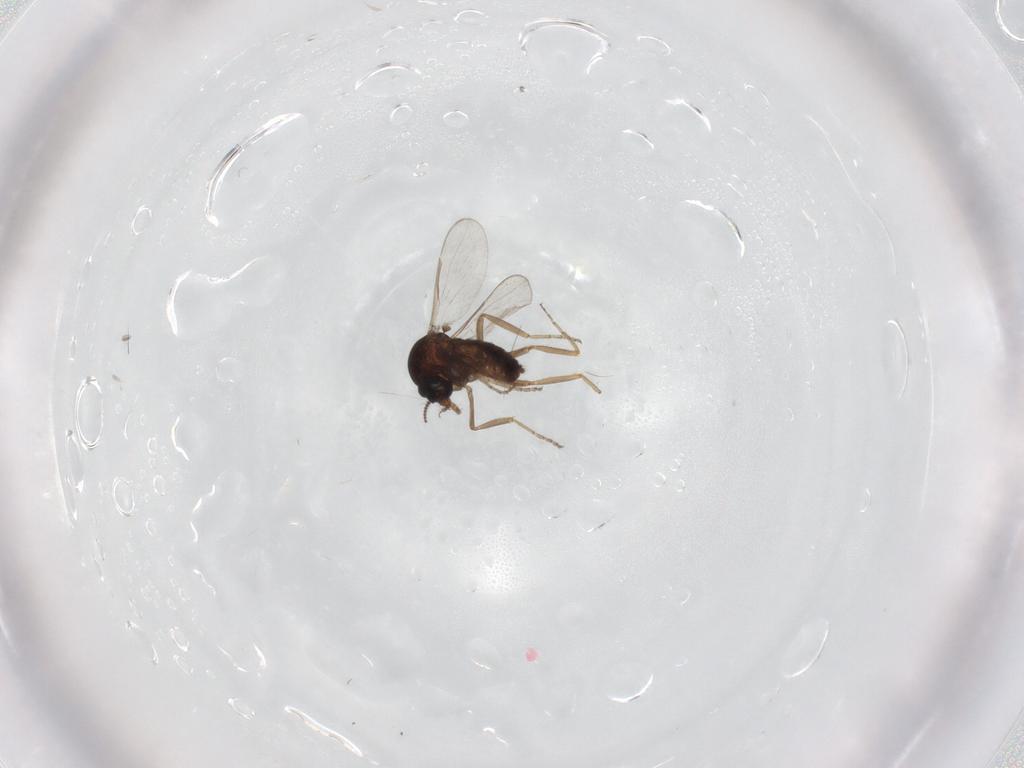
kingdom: Animalia
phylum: Arthropoda
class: Insecta
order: Diptera
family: Ceratopogonidae
